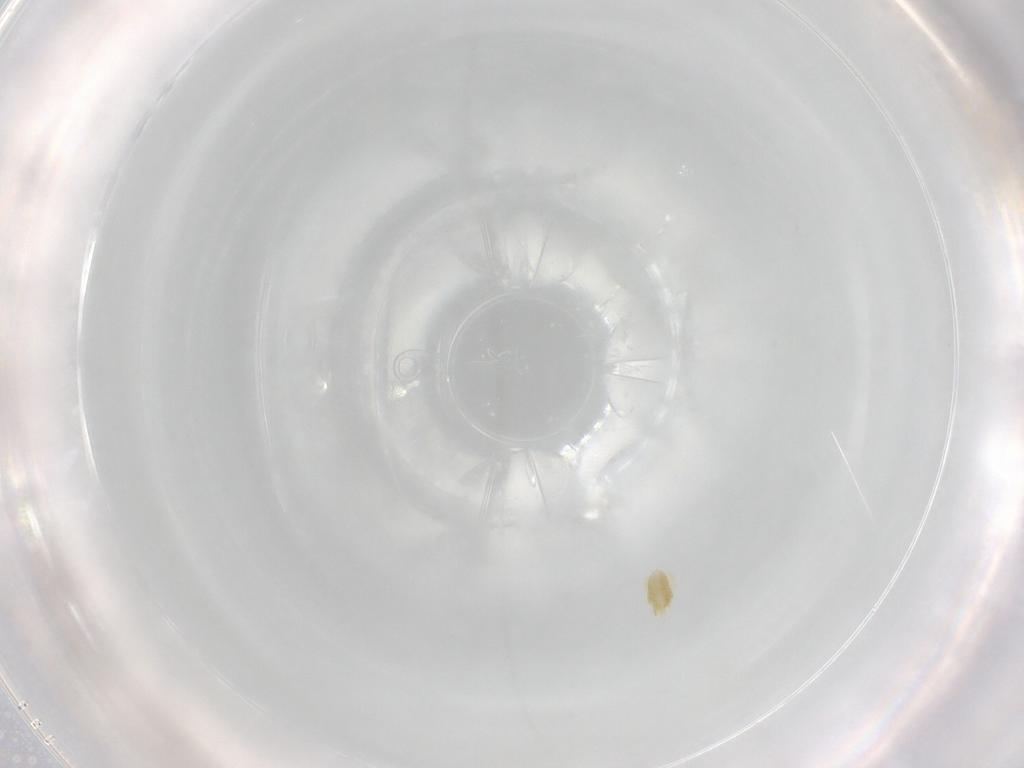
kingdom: Animalia
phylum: Arthropoda
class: Arachnida
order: Trombidiformes
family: Eupodidae
